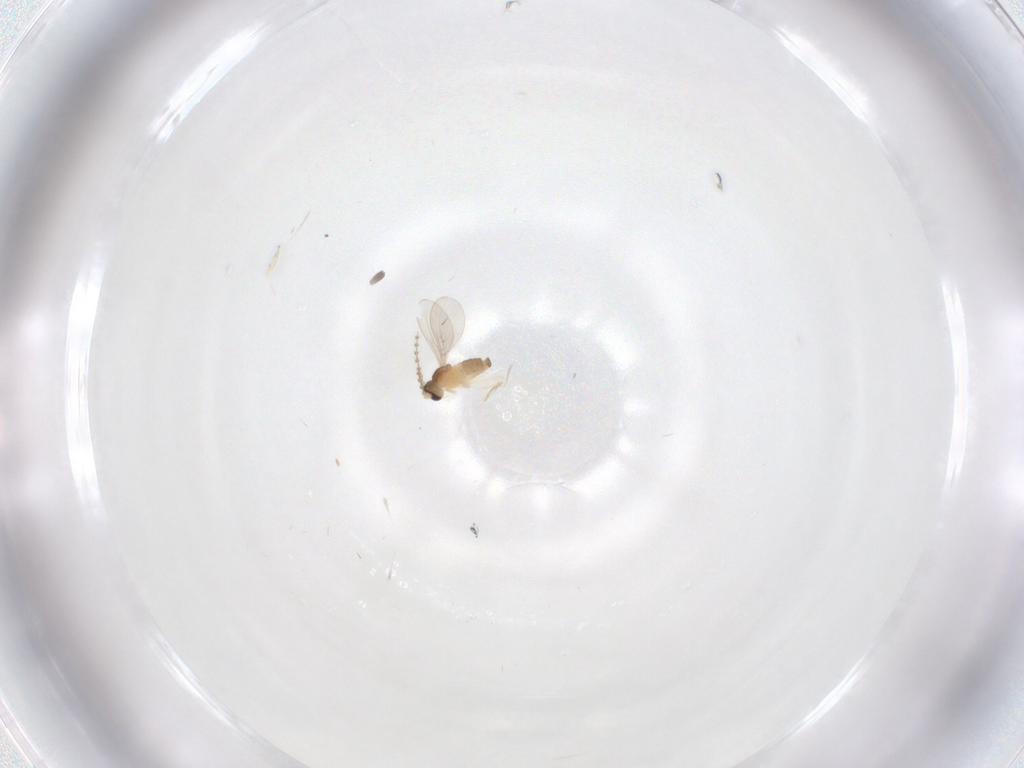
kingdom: Animalia
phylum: Arthropoda
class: Insecta
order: Diptera
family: Cecidomyiidae
